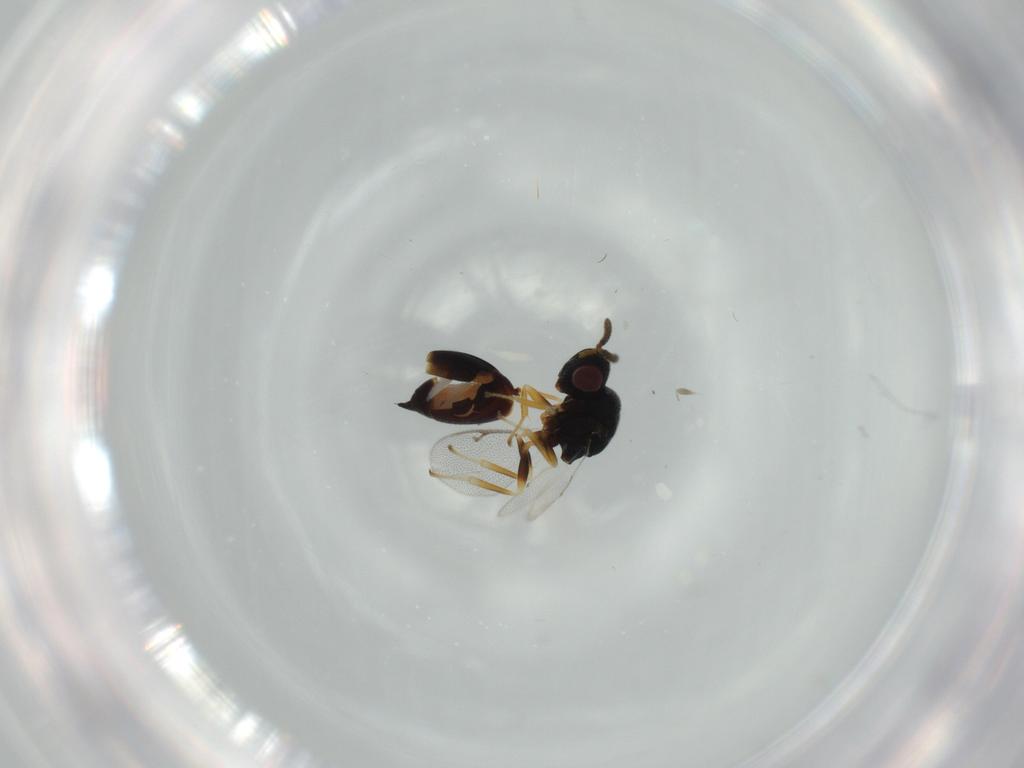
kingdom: Animalia
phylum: Arthropoda
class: Insecta
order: Hymenoptera
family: Eurytomidae
